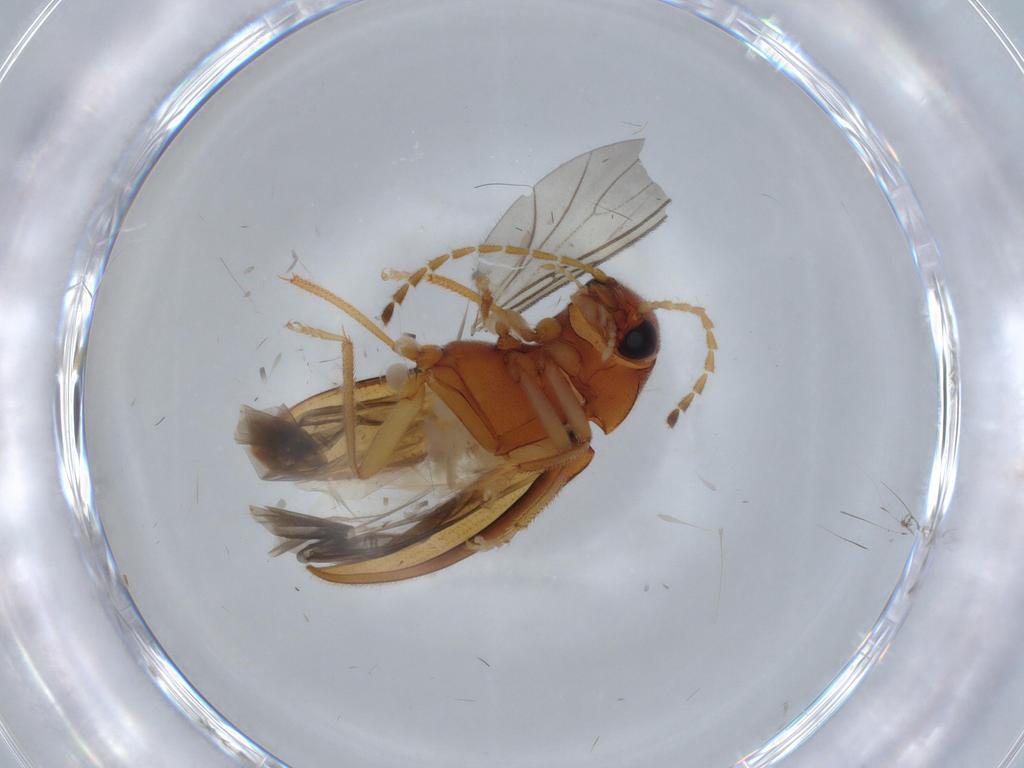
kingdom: Animalia
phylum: Arthropoda
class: Insecta
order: Coleoptera
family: Ptilodactylidae
